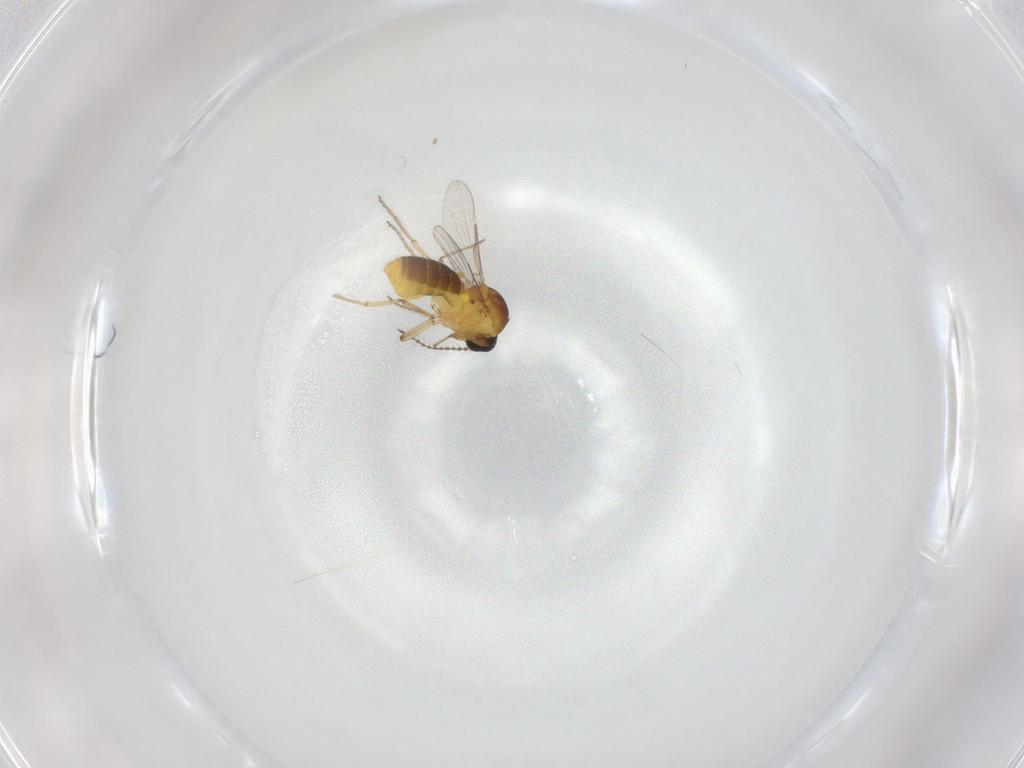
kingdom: Animalia
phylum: Arthropoda
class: Insecta
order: Diptera
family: Ceratopogonidae
